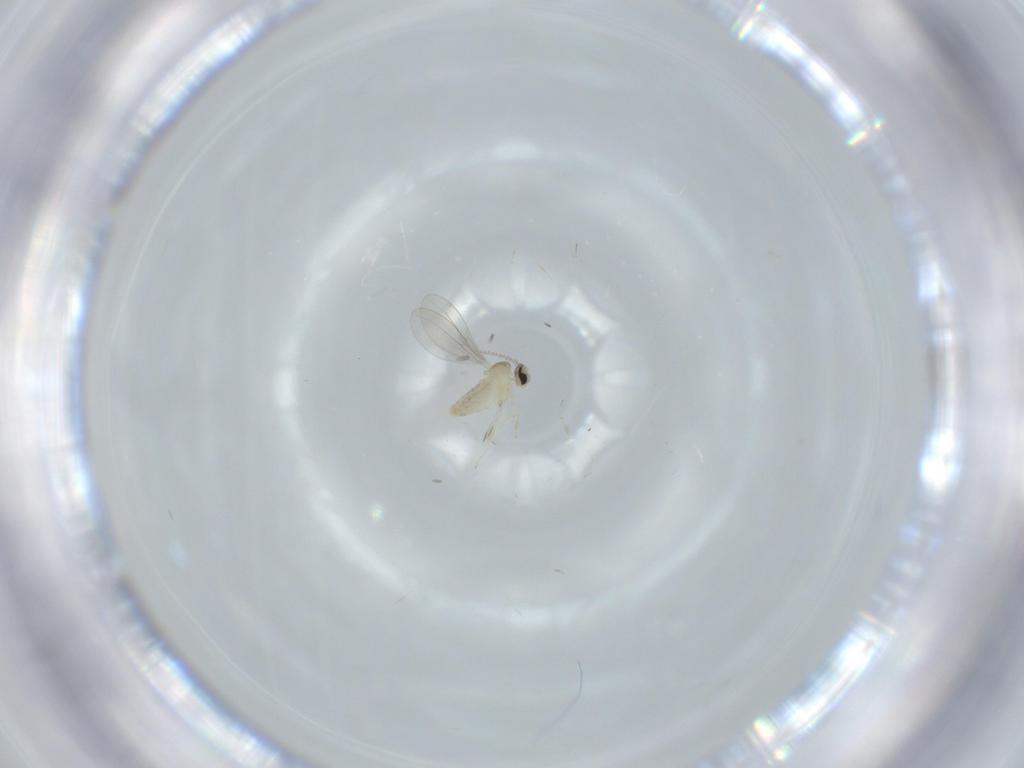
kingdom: Animalia
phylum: Arthropoda
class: Insecta
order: Diptera
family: Cecidomyiidae
